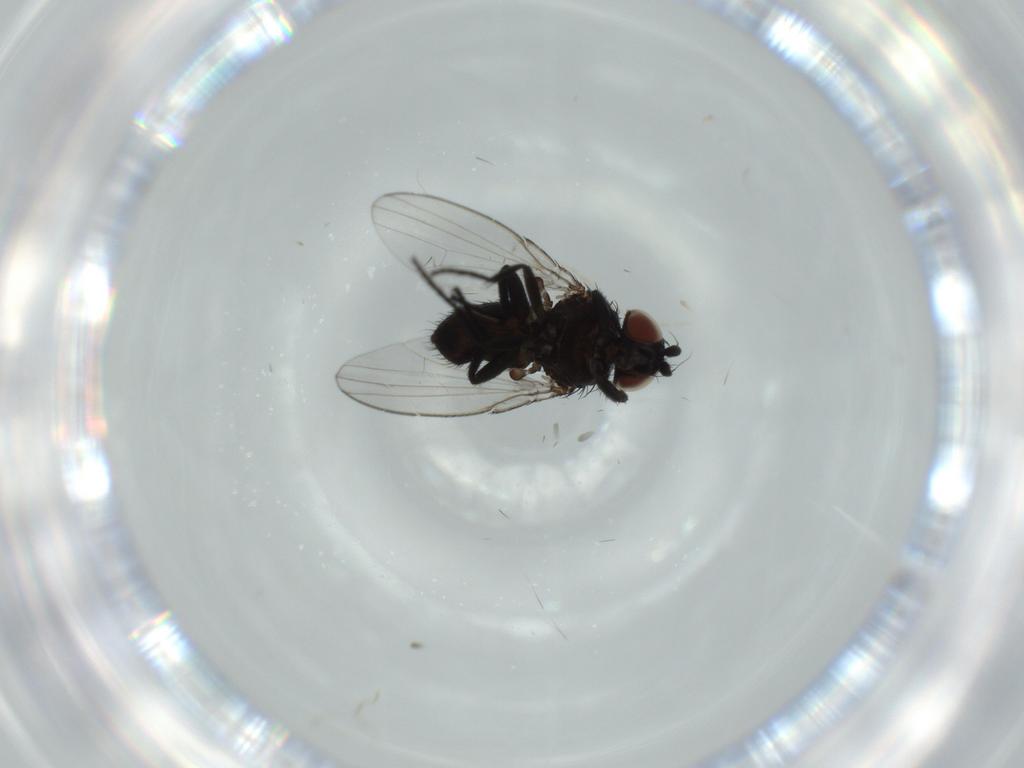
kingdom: Animalia
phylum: Arthropoda
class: Insecta
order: Diptera
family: Milichiidae
